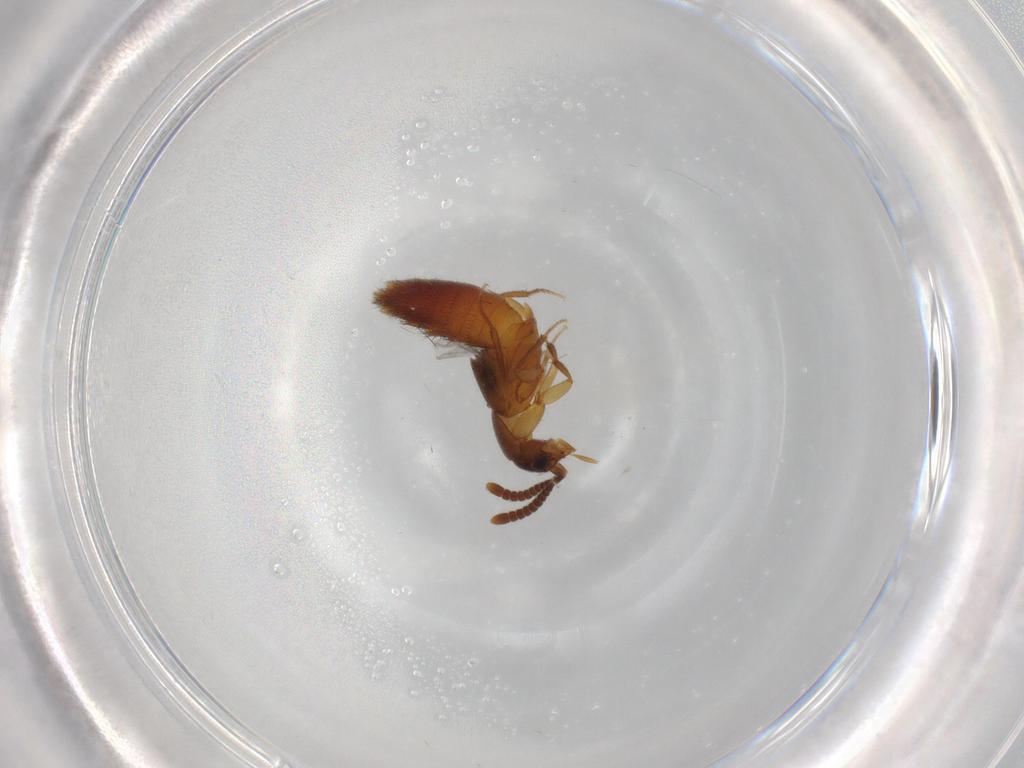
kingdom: Animalia
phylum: Arthropoda
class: Insecta
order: Coleoptera
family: Staphylinidae
